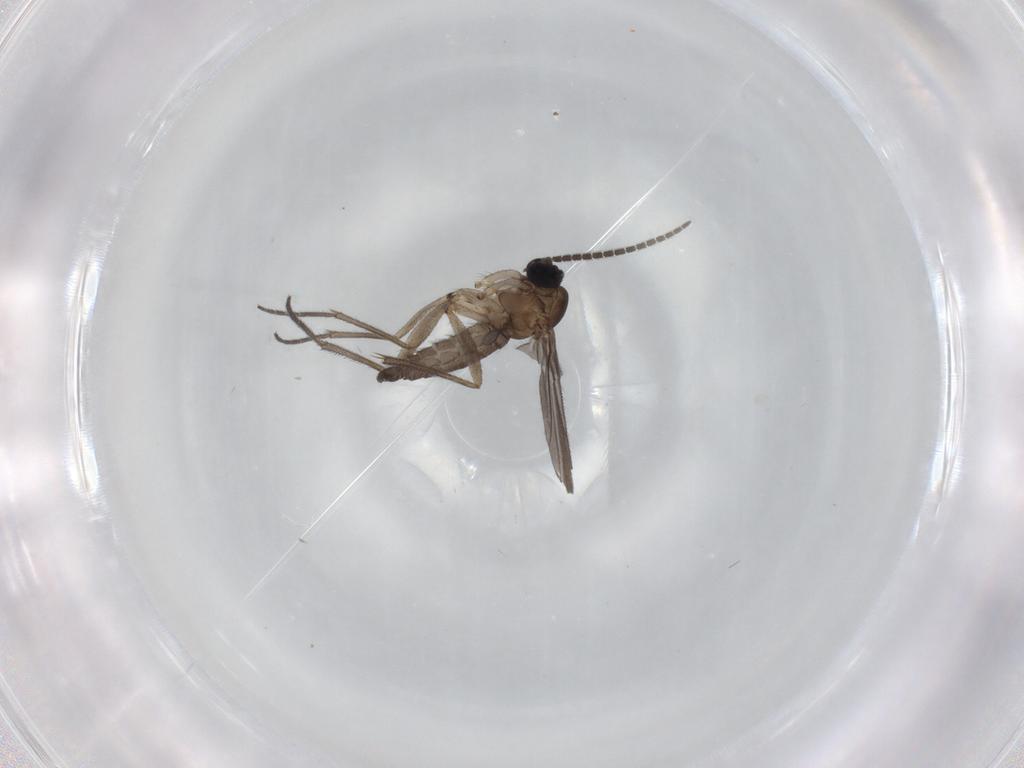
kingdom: Animalia
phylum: Arthropoda
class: Insecta
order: Diptera
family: Sciaridae
